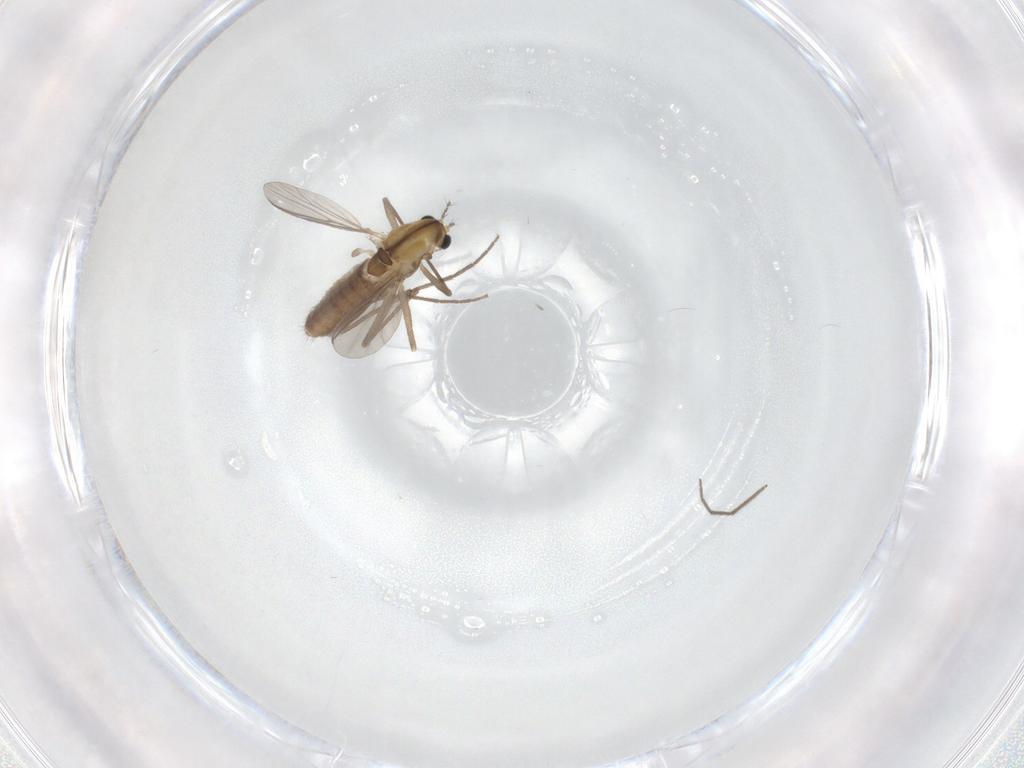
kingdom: Animalia
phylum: Arthropoda
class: Insecta
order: Diptera
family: Chironomidae
